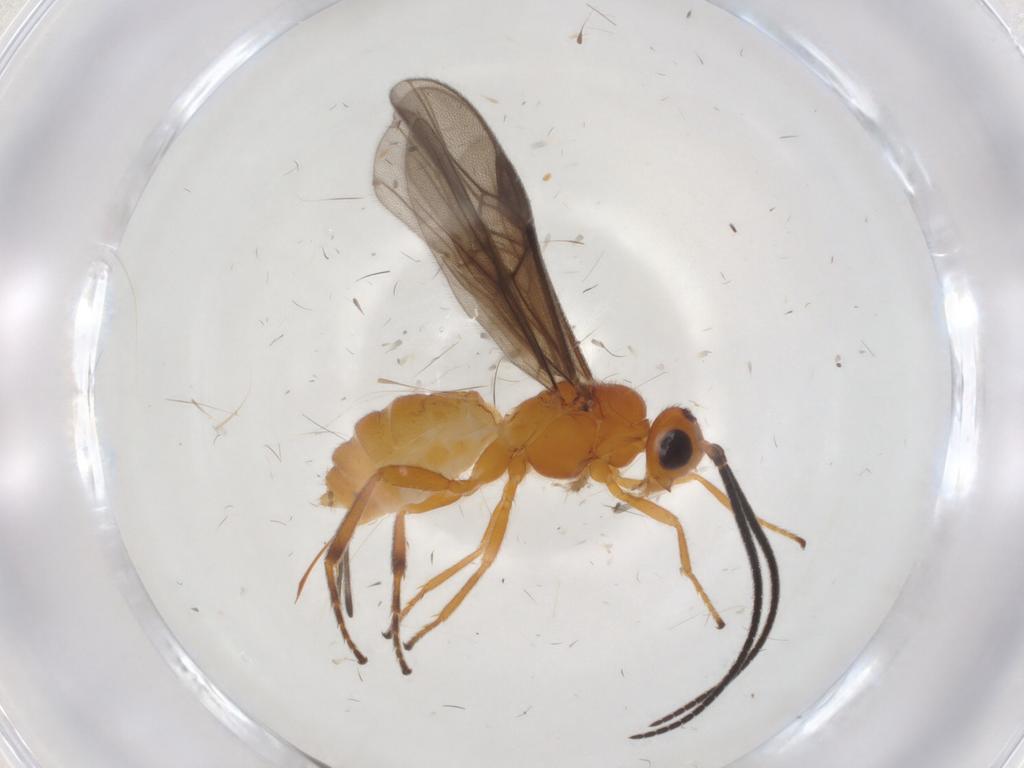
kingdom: Animalia
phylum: Arthropoda
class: Insecta
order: Hymenoptera
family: Braconidae
